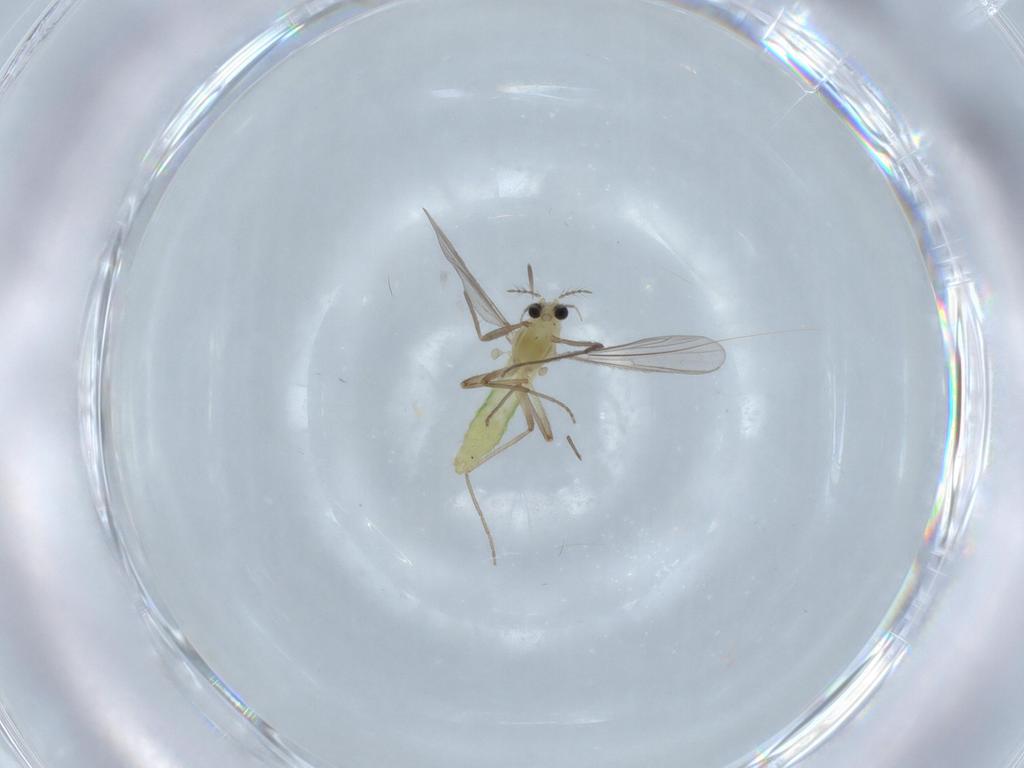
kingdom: Animalia
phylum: Arthropoda
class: Insecta
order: Diptera
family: Chironomidae
